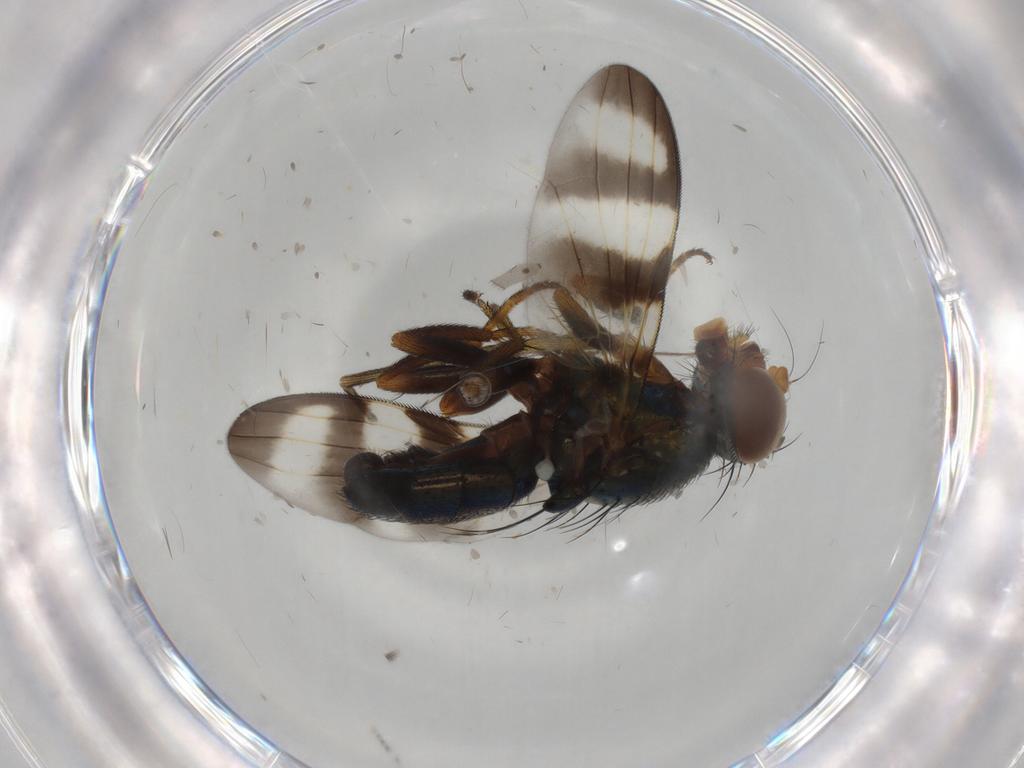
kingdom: Animalia
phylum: Arthropoda
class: Insecta
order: Diptera
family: Ulidiidae
